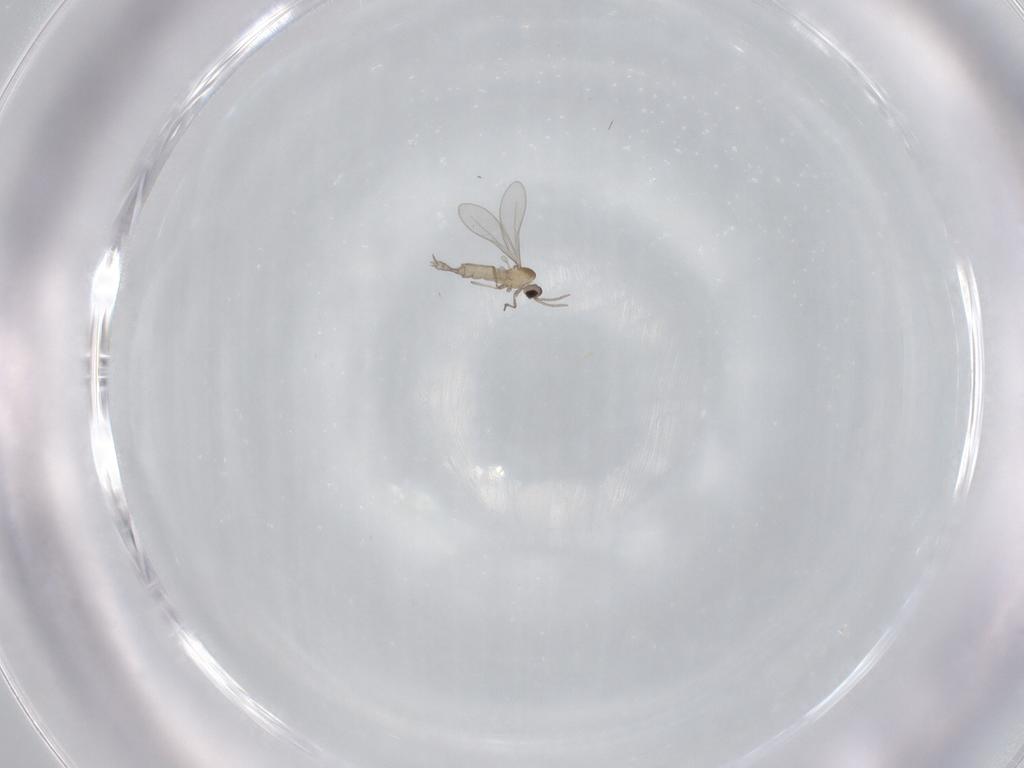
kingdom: Animalia
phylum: Arthropoda
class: Insecta
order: Diptera
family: Cecidomyiidae
